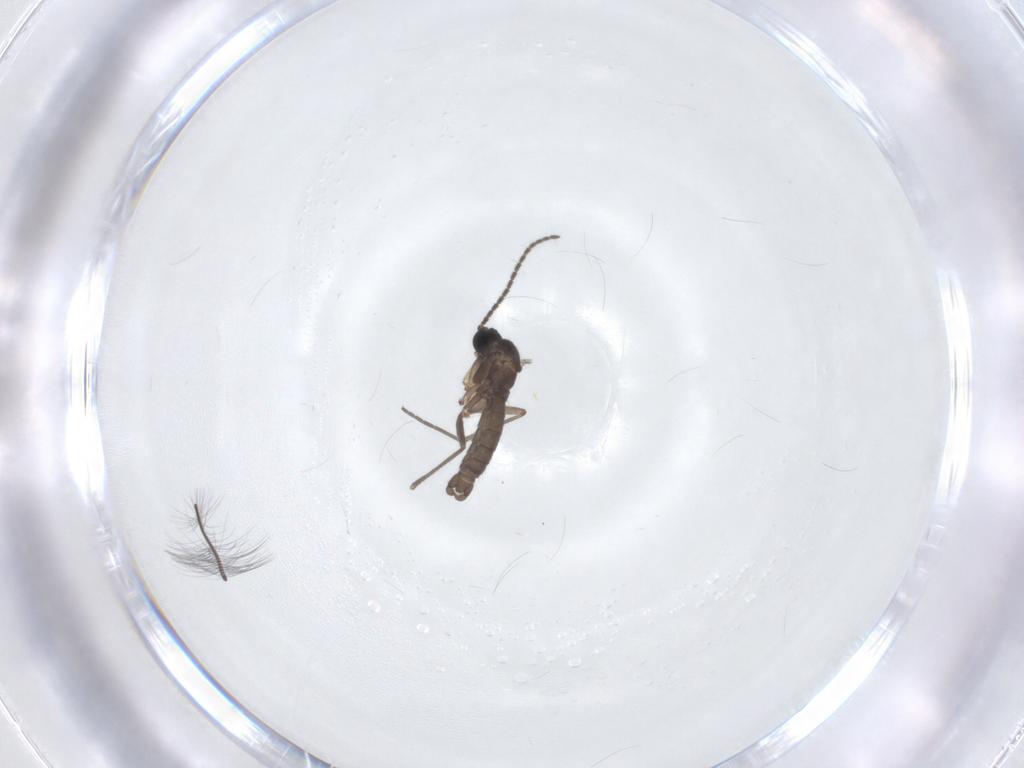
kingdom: Animalia
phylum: Arthropoda
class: Insecta
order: Diptera
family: Sciaridae
